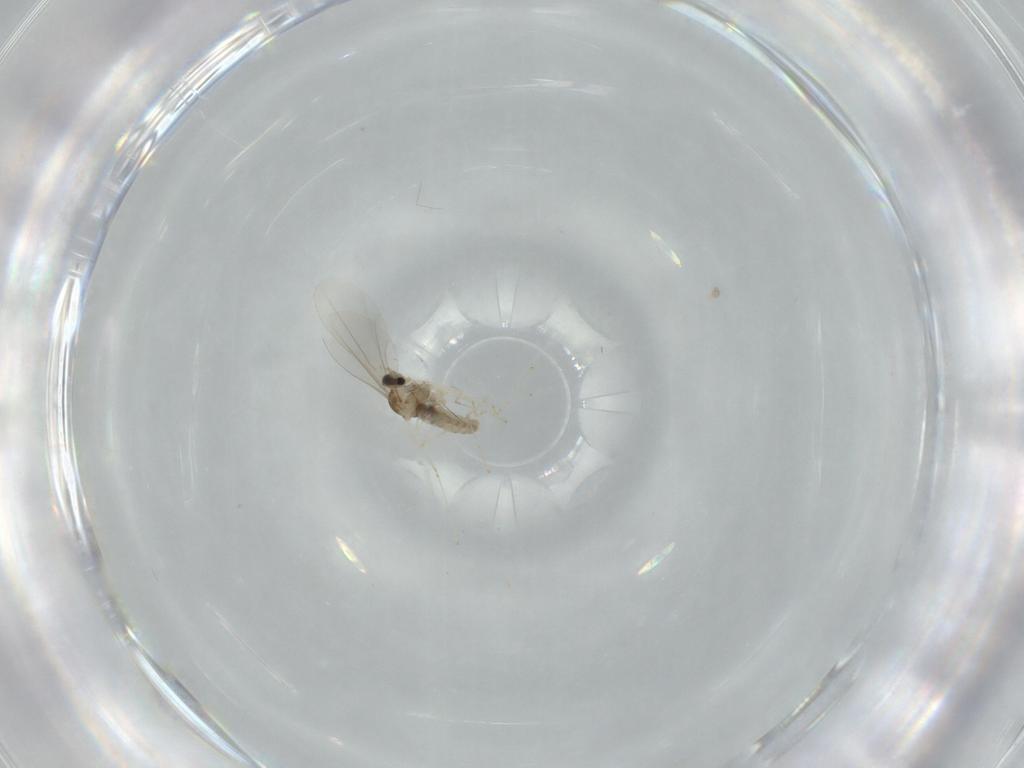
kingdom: Animalia
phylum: Arthropoda
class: Insecta
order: Diptera
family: Cecidomyiidae
